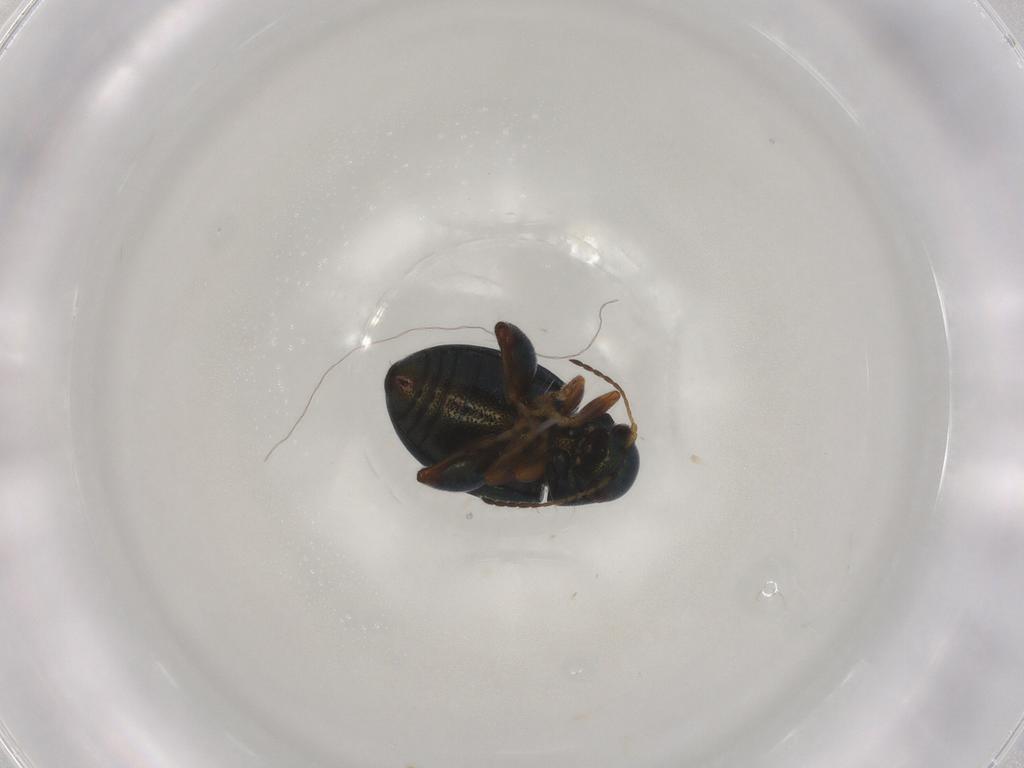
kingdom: Animalia
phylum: Arthropoda
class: Insecta
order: Coleoptera
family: Chrysomelidae
